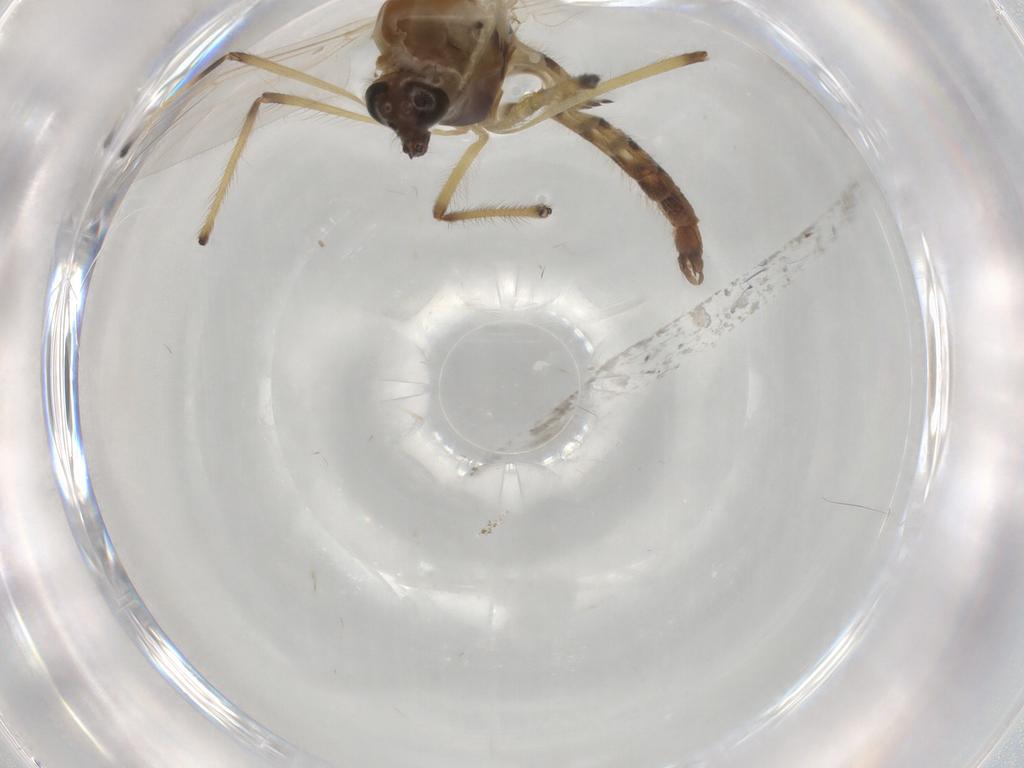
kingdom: Animalia
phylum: Arthropoda
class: Insecta
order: Diptera
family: Chironomidae
